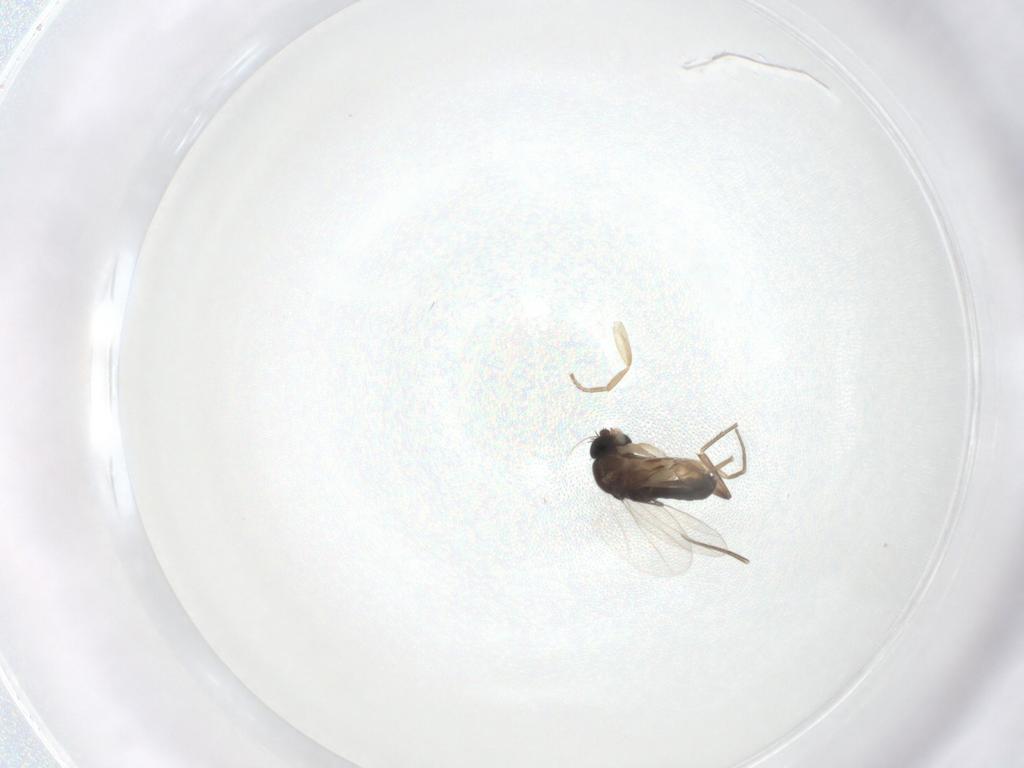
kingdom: Animalia
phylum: Arthropoda
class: Insecta
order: Diptera
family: Phoridae
